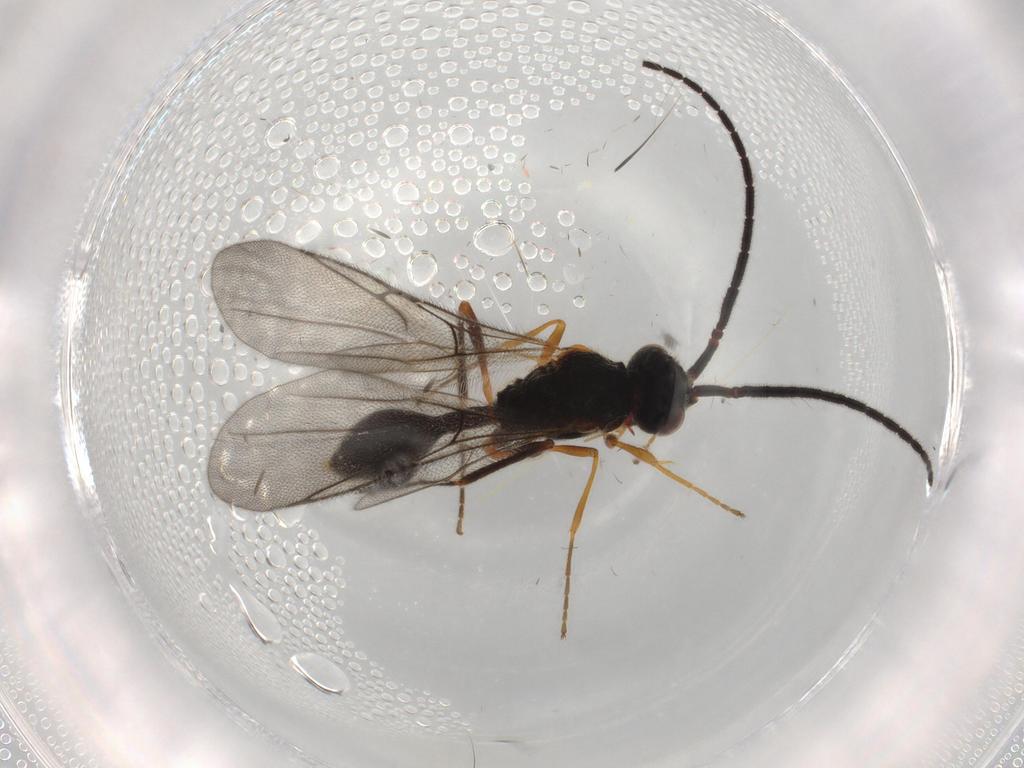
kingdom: Animalia
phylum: Arthropoda
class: Insecta
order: Hymenoptera
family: Diapriidae
